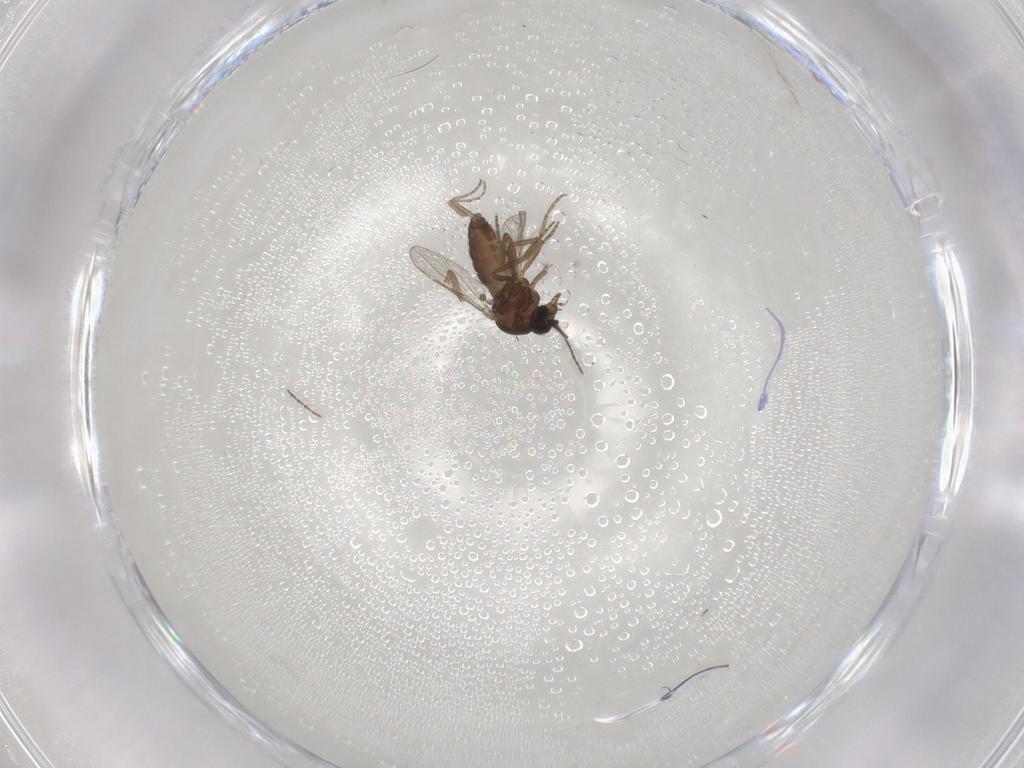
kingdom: Animalia
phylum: Arthropoda
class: Insecta
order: Diptera
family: Ceratopogonidae
